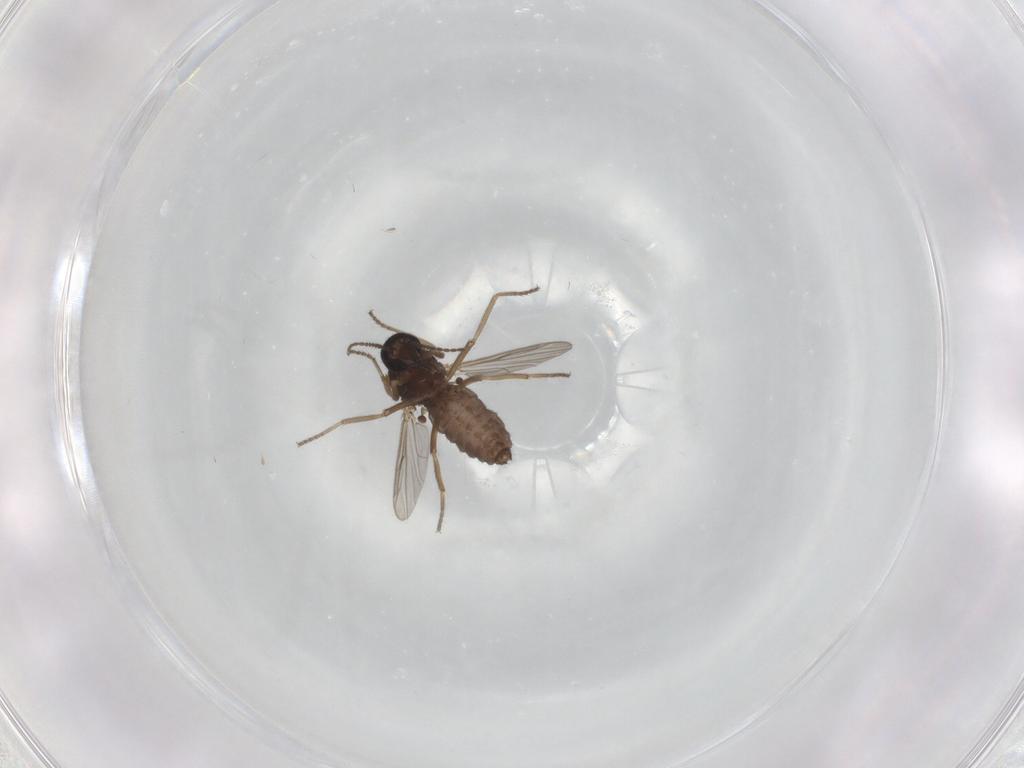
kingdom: Animalia
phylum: Arthropoda
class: Insecta
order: Diptera
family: Ceratopogonidae
